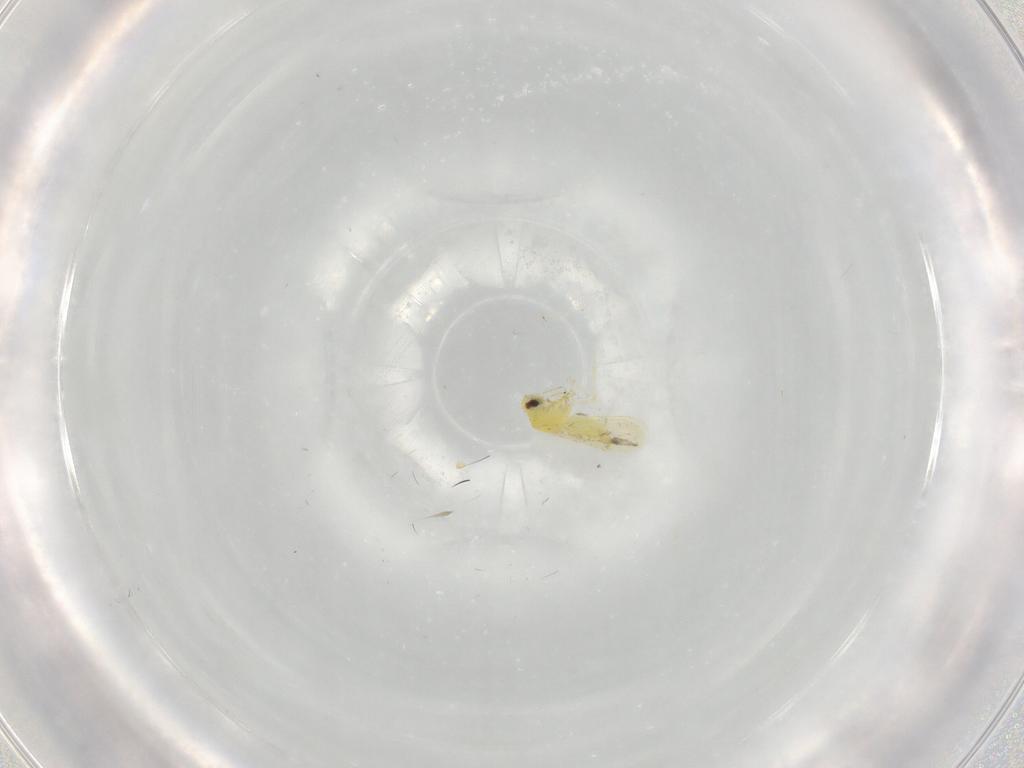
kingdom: Animalia
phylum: Arthropoda
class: Insecta
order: Hemiptera
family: Aleyrodidae
